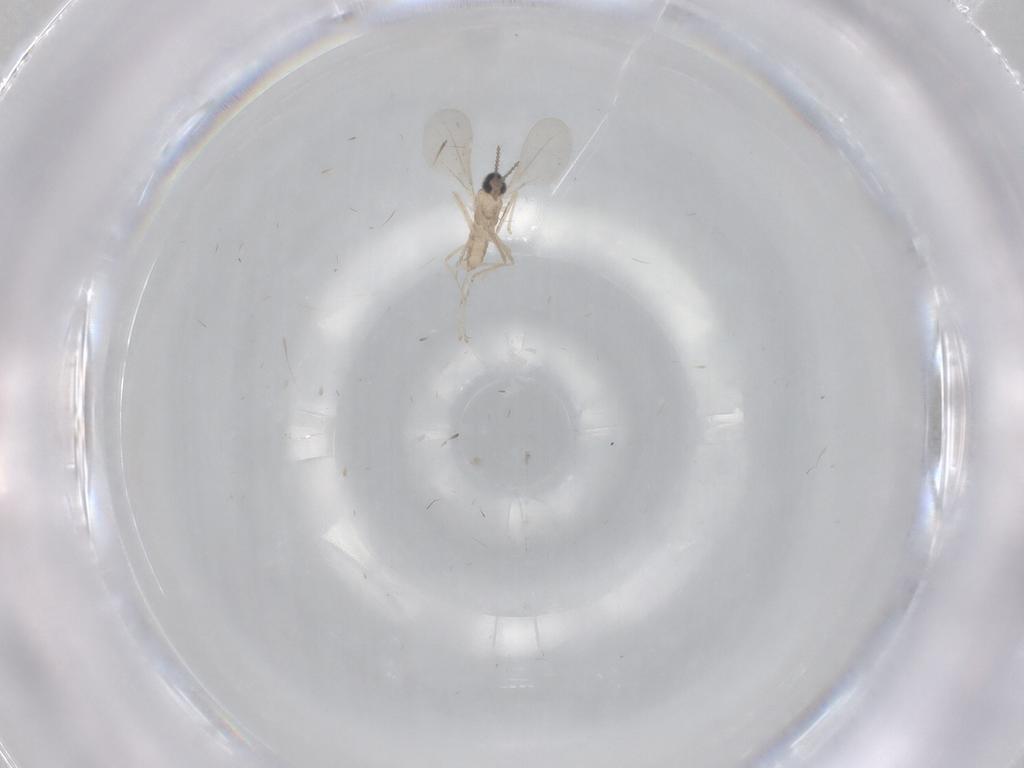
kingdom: Animalia
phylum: Arthropoda
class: Insecta
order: Diptera
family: Cecidomyiidae
